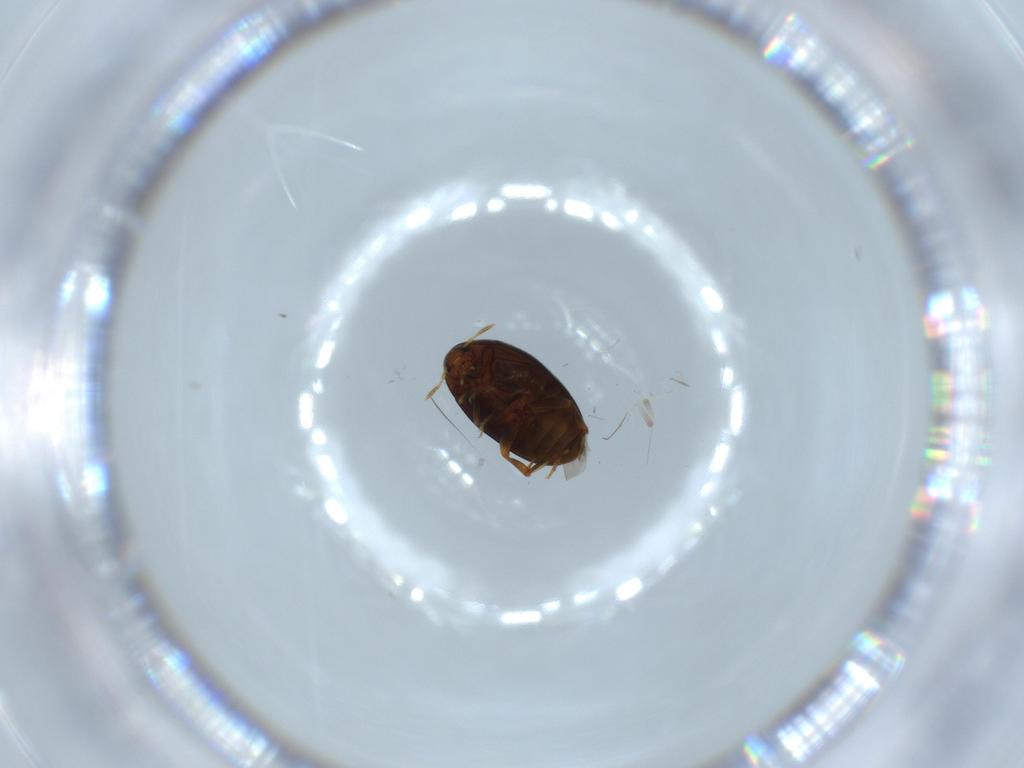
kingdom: Animalia
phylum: Arthropoda
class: Insecta
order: Coleoptera
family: Melandryidae
